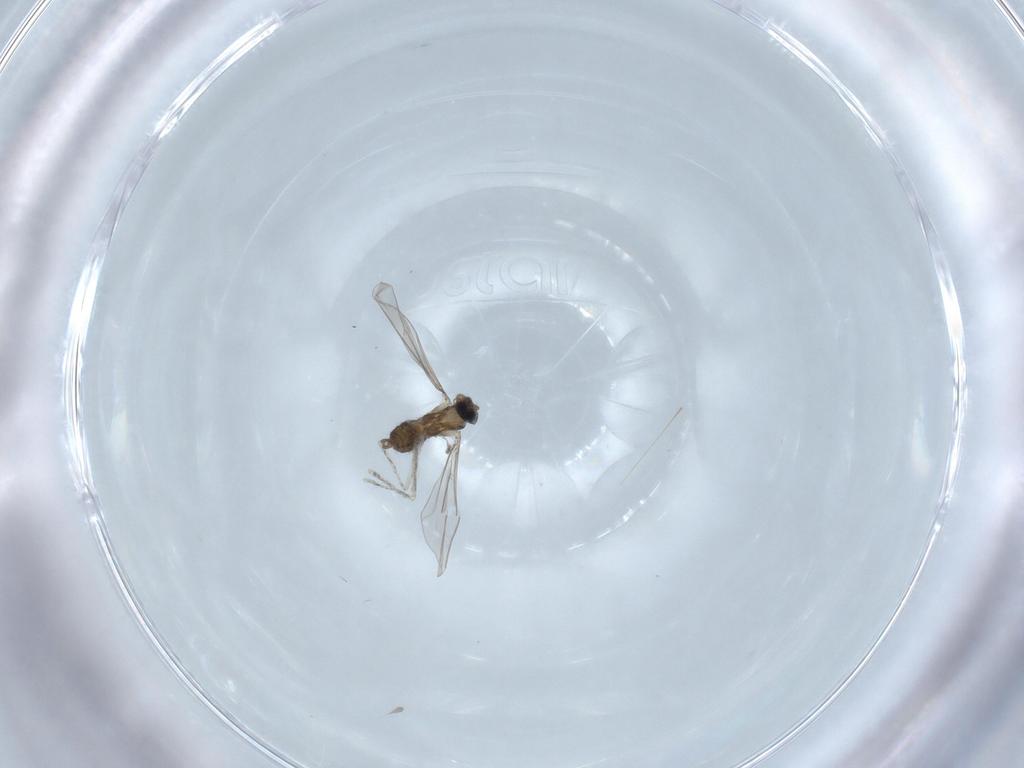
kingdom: Animalia
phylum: Arthropoda
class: Insecta
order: Diptera
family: Cecidomyiidae
